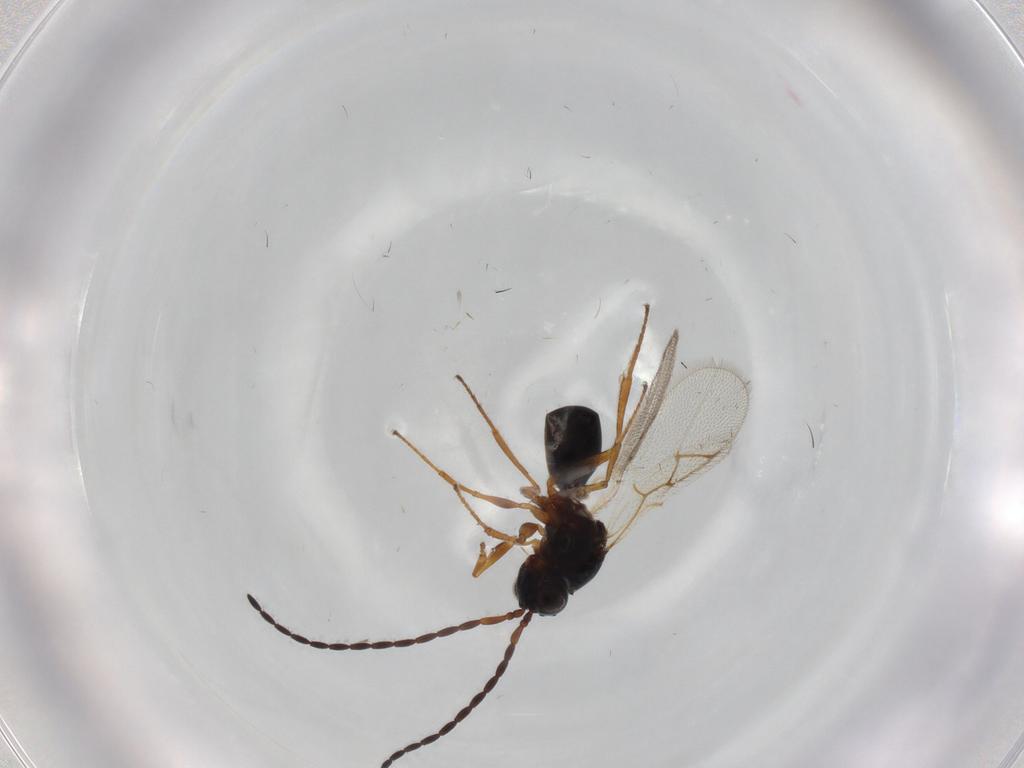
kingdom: Animalia
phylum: Arthropoda
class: Insecta
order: Hymenoptera
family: Figitidae
